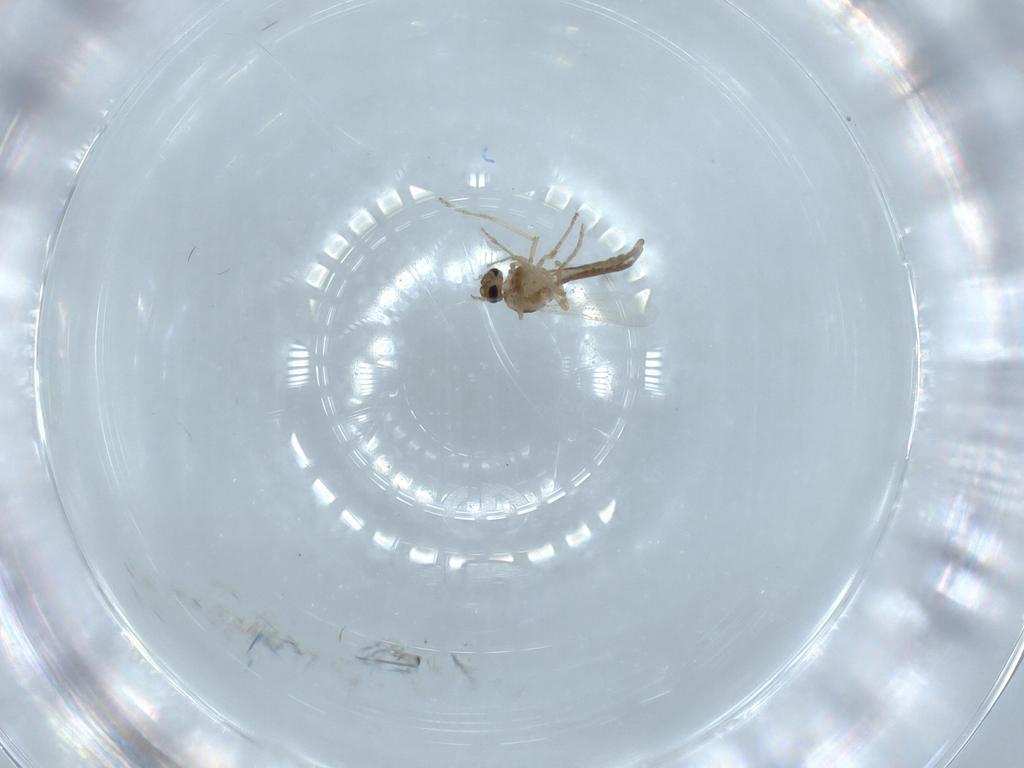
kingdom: Animalia
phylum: Arthropoda
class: Insecta
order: Diptera
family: Ceratopogonidae
